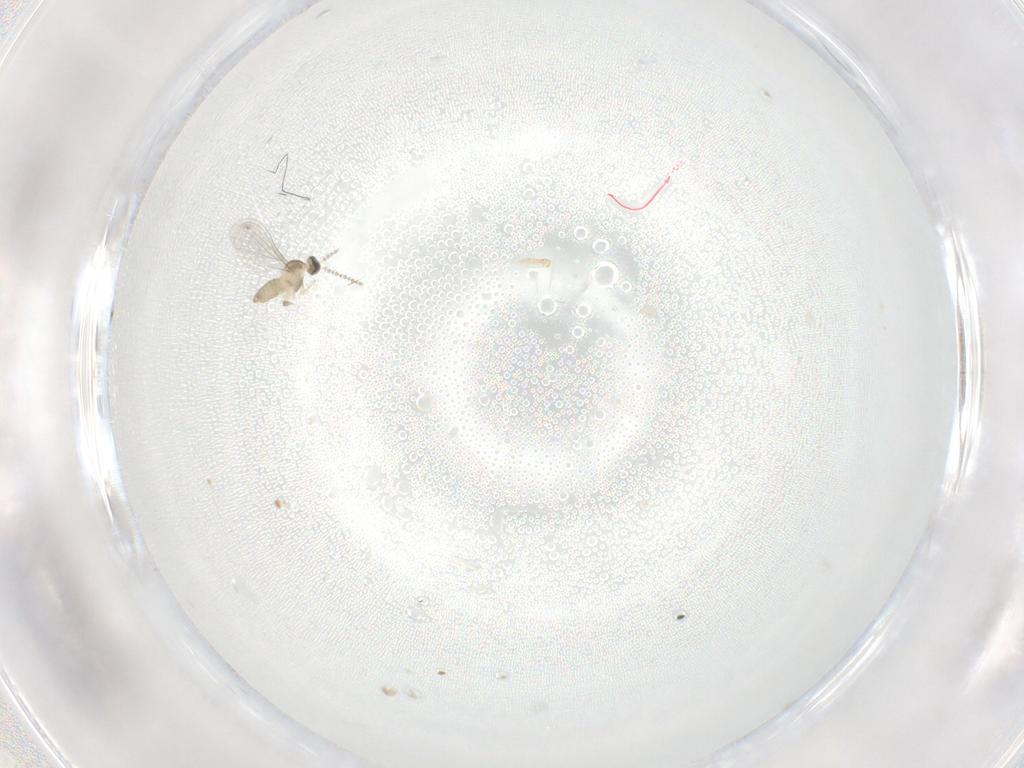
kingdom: Animalia
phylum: Arthropoda
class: Insecta
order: Diptera
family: Cecidomyiidae
